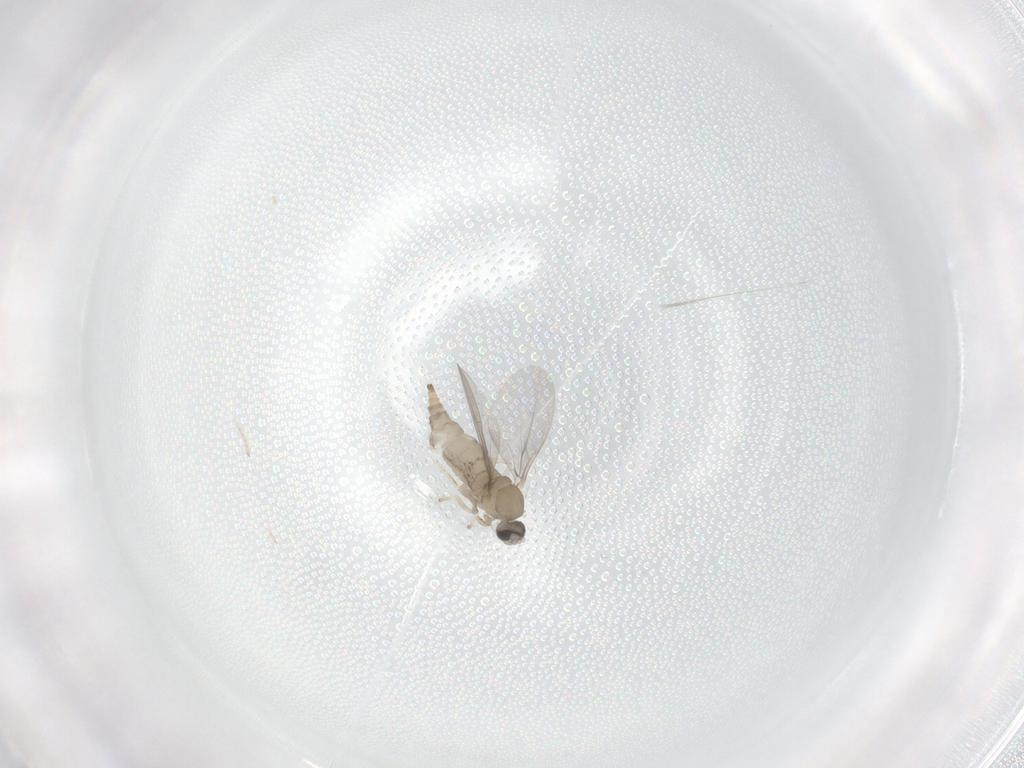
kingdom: Animalia
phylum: Arthropoda
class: Insecta
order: Diptera
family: Cecidomyiidae
